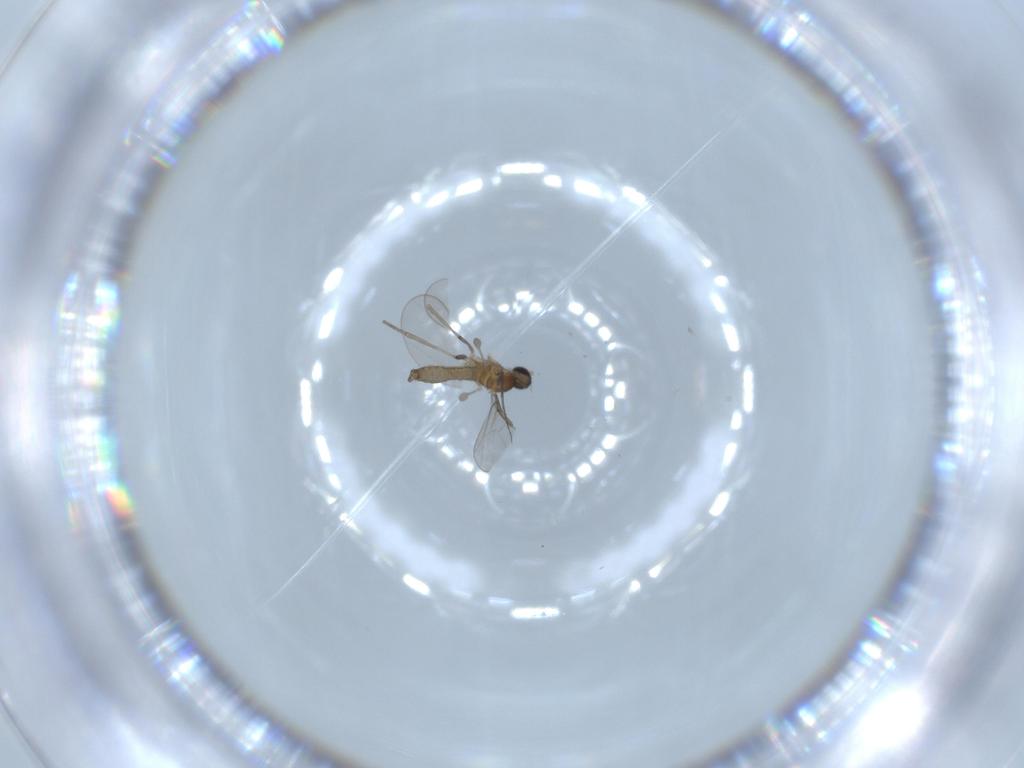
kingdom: Animalia
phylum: Arthropoda
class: Insecta
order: Diptera
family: Cecidomyiidae
